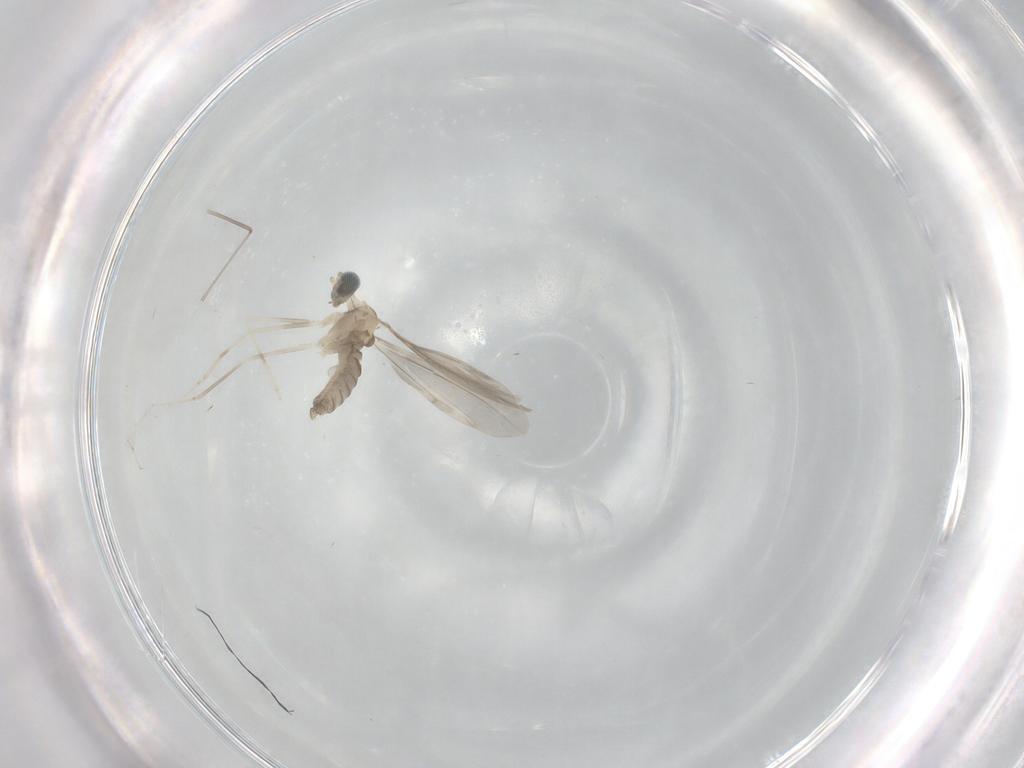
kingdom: Animalia
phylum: Arthropoda
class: Insecta
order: Diptera
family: Cecidomyiidae
